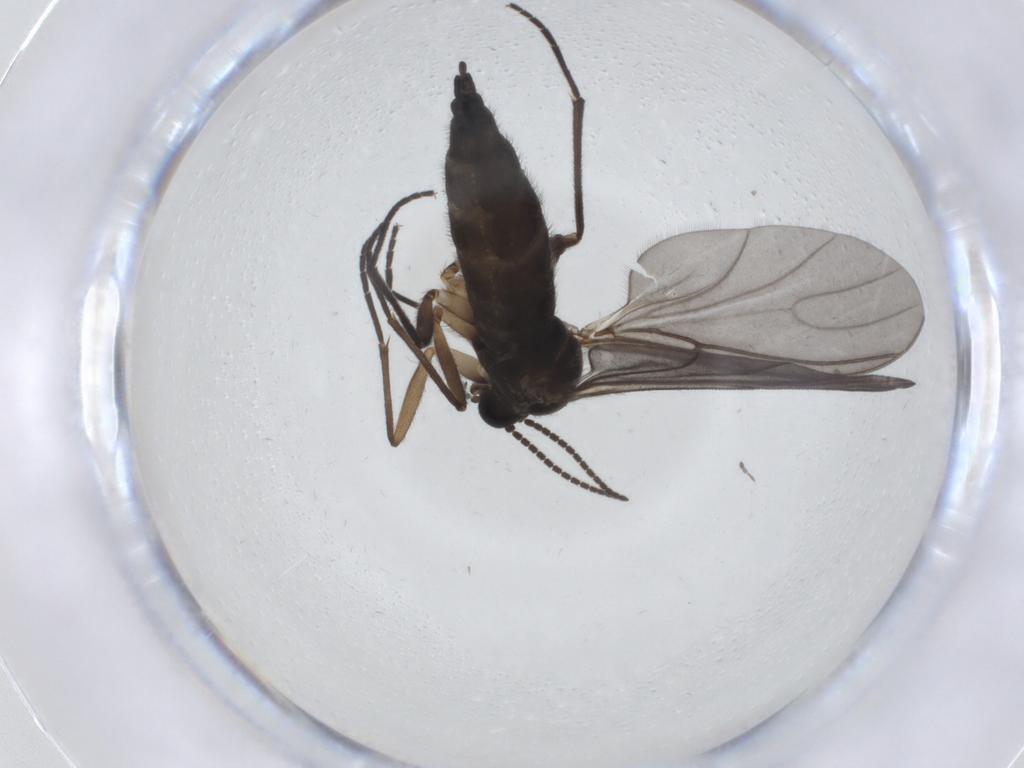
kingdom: Animalia
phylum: Arthropoda
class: Insecta
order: Diptera
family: Sciaridae
